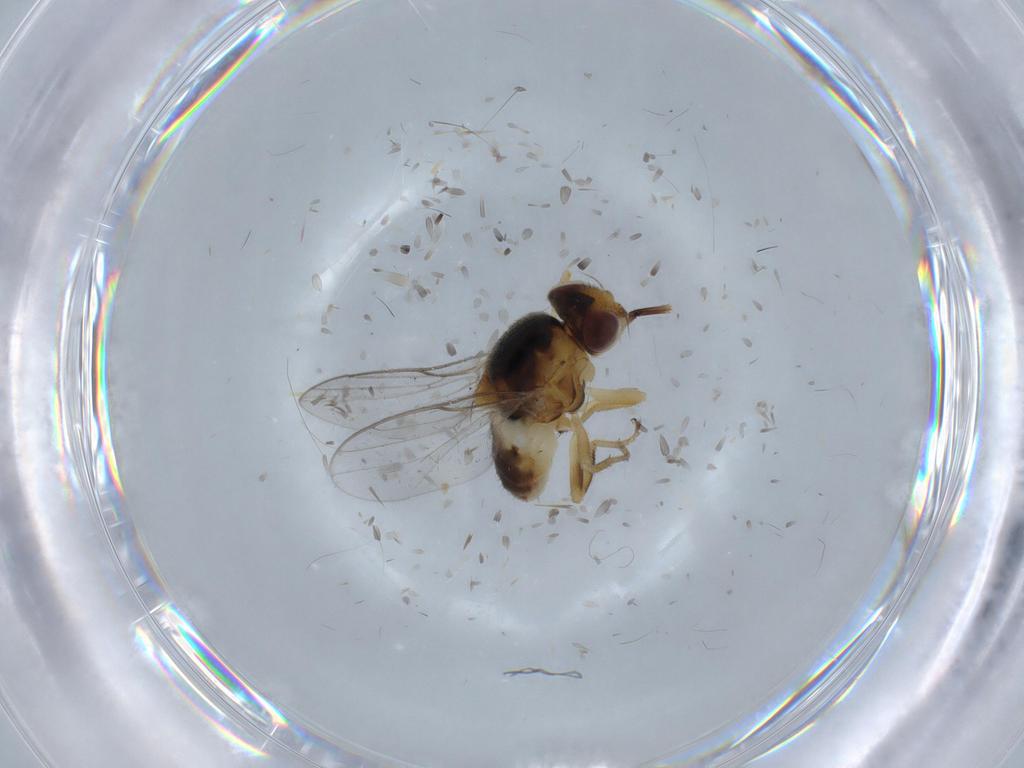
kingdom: Animalia
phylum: Arthropoda
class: Insecta
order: Diptera
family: Chloropidae
